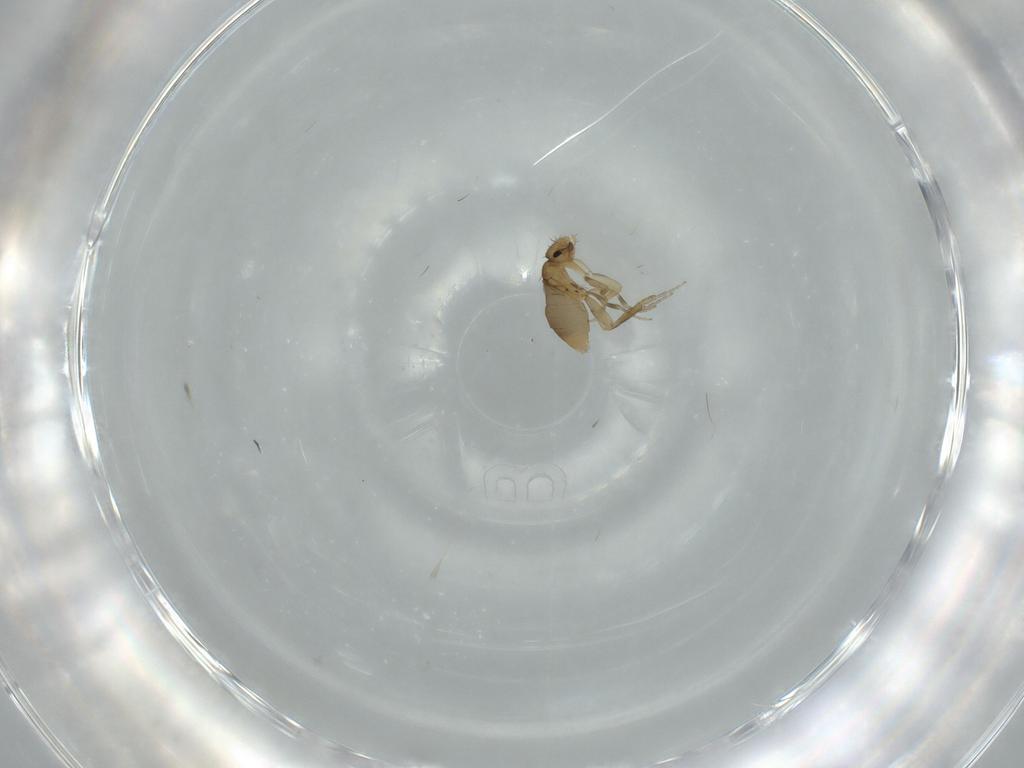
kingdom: Animalia
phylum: Arthropoda
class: Insecta
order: Diptera
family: Phoridae
